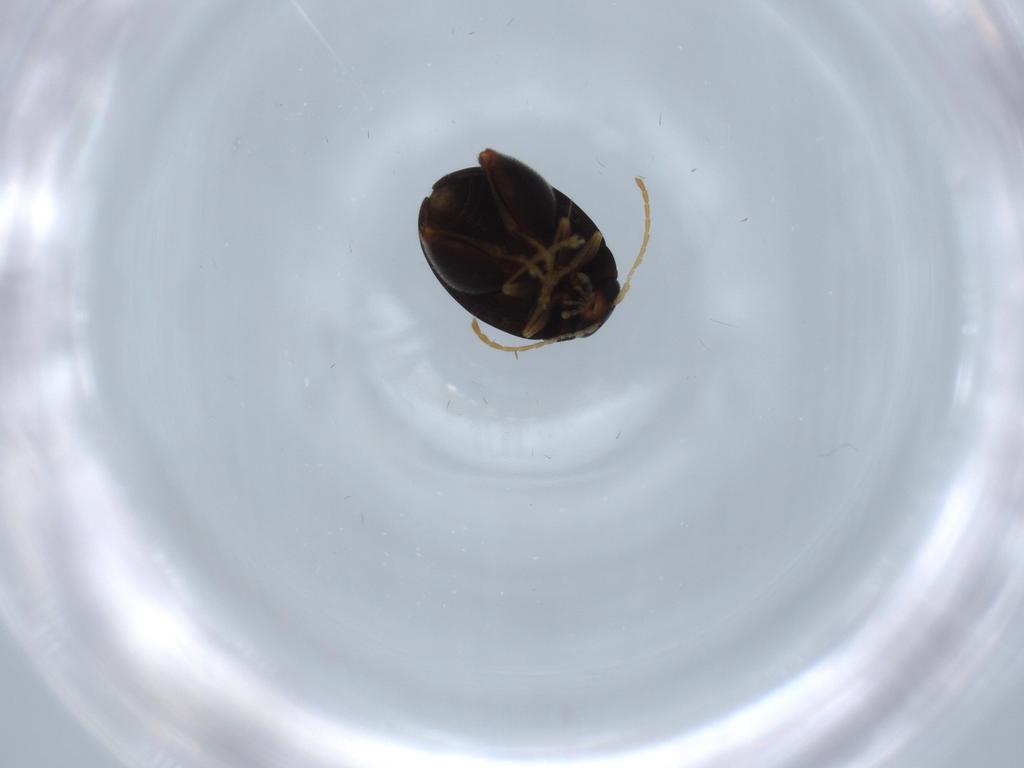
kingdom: Animalia
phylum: Arthropoda
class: Insecta
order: Coleoptera
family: Chrysomelidae
